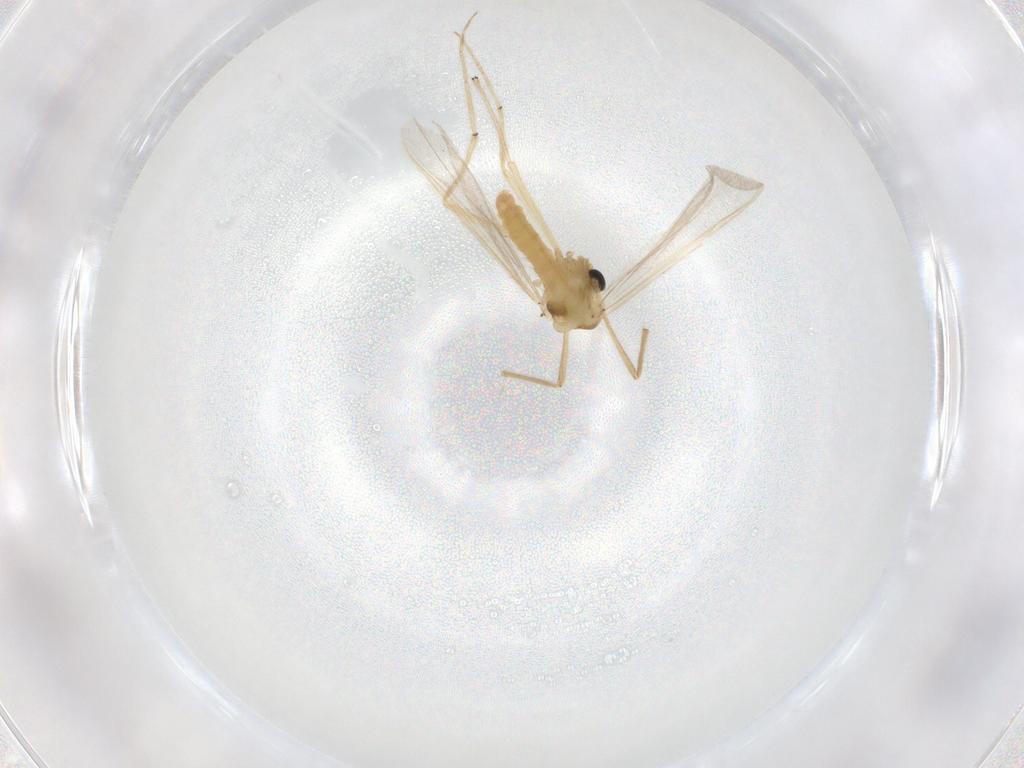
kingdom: Animalia
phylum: Arthropoda
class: Insecta
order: Diptera
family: Chironomidae
